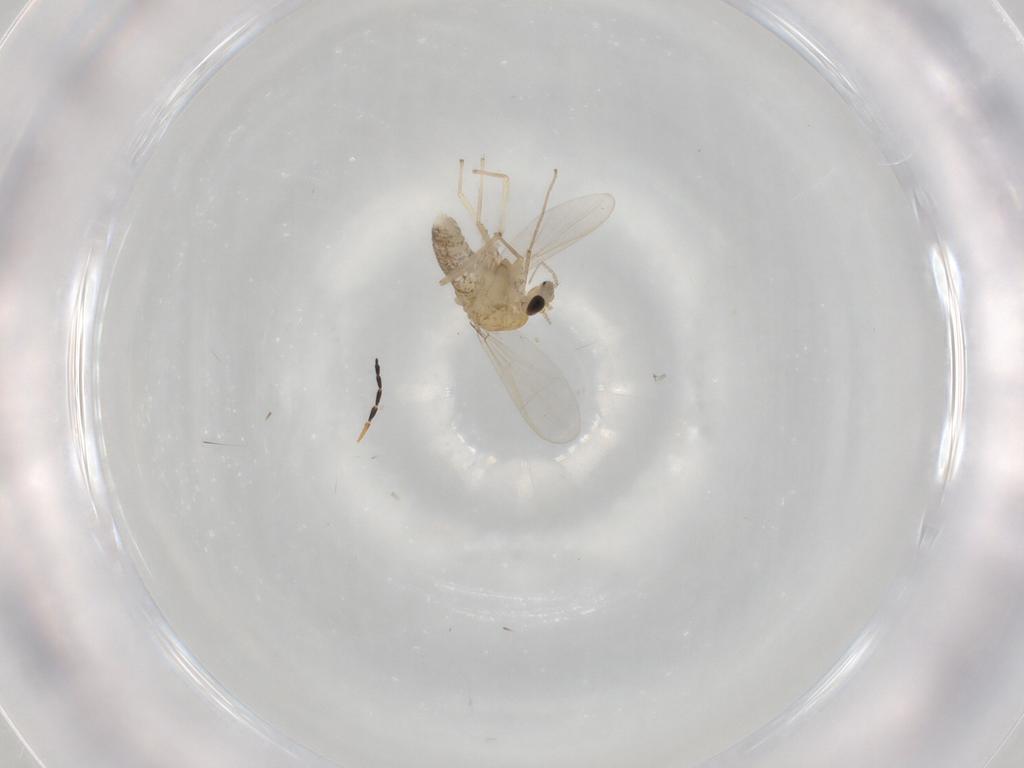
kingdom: Animalia
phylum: Arthropoda
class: Insecta
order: Diptera
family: Chironomidae
